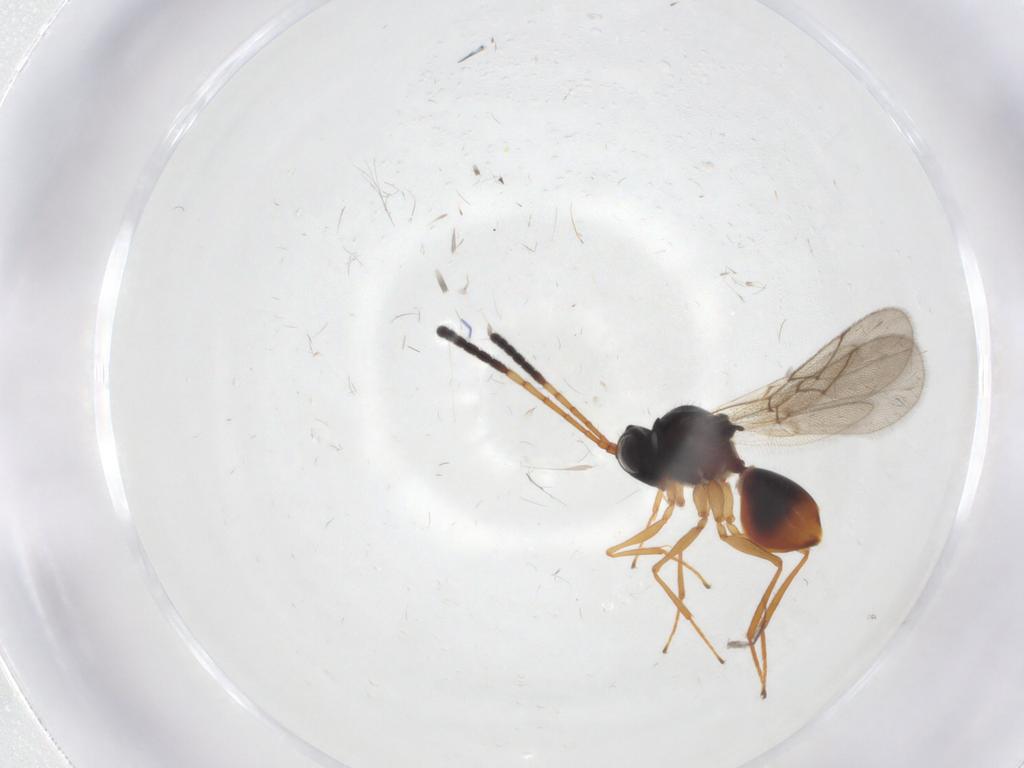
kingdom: Animalia
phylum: Arthropoda
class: Insecta
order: Hymenoptera
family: Figitidae
